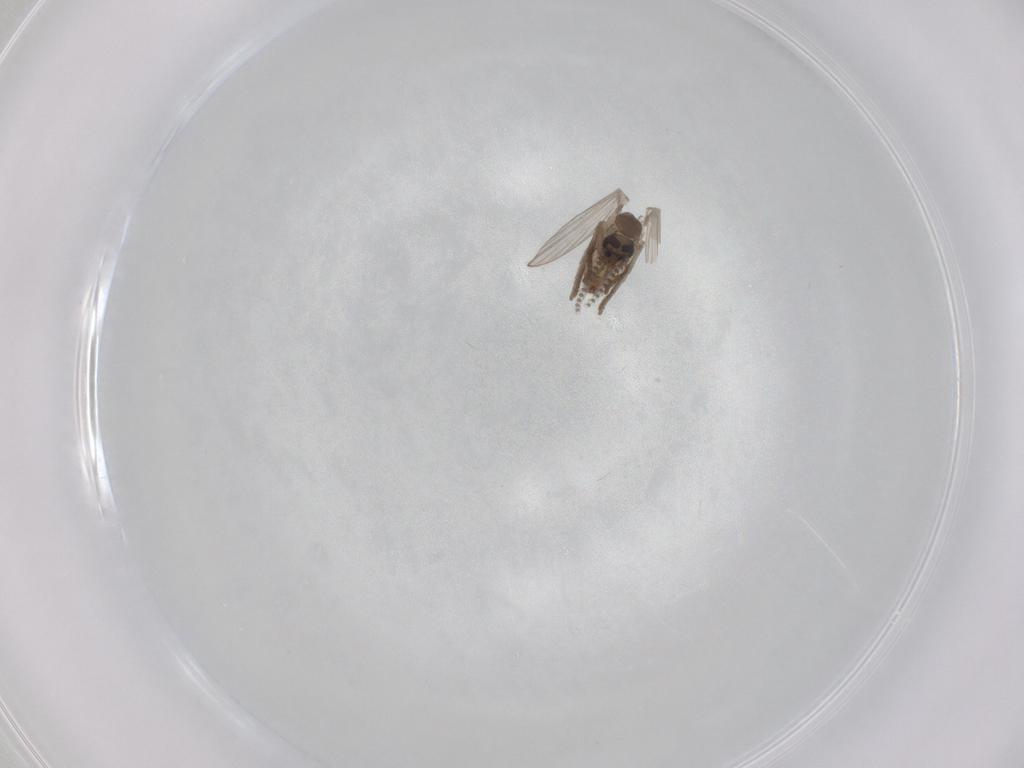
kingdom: Animalia
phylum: Arthropoda
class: Insecta
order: Diptera
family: Psychodidae
